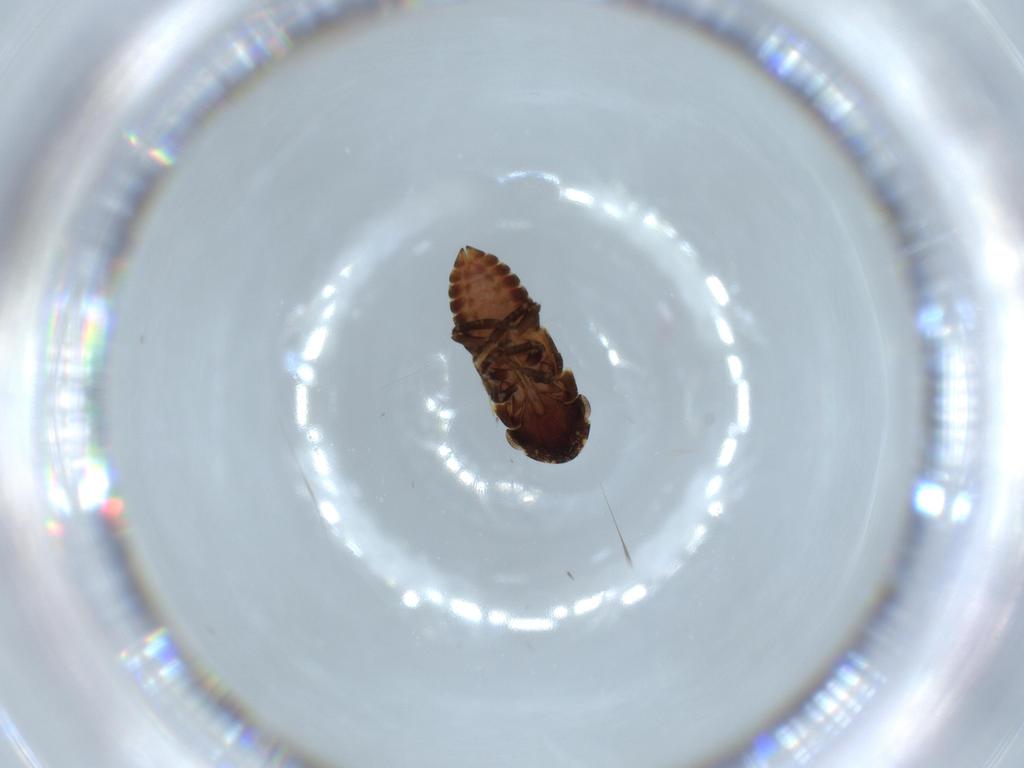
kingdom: Animalia
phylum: Arthropoda
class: Insecta
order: Hemiptera
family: Cicadellidae
